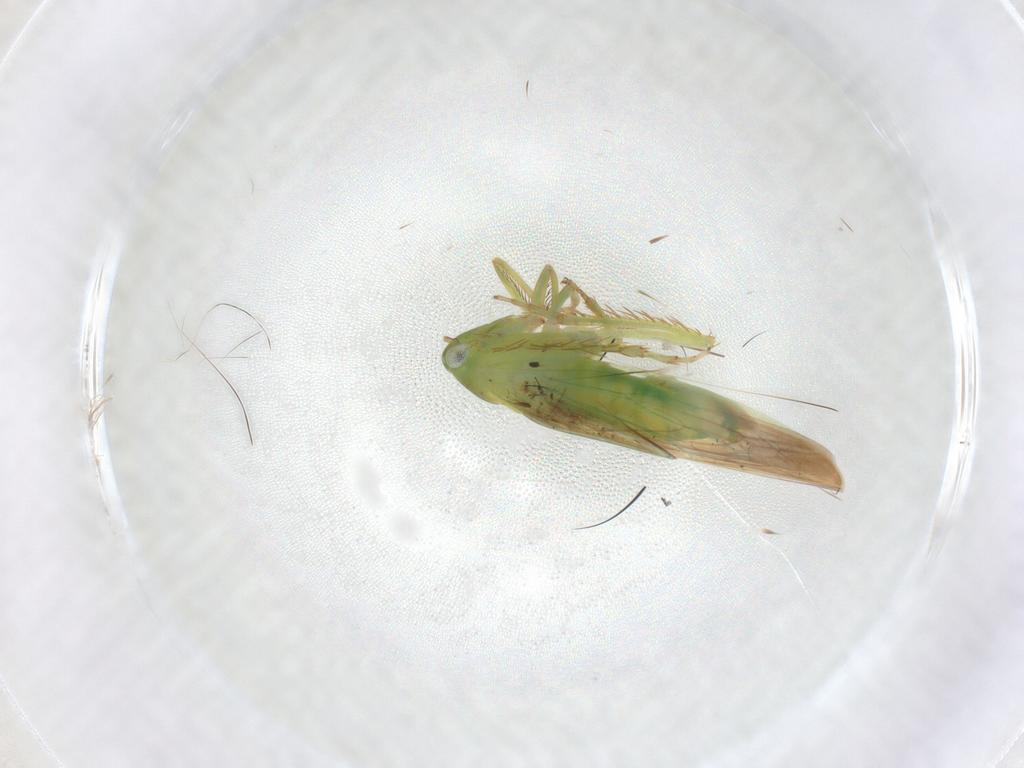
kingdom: Animalia
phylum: Arthropoda
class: Insecta
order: Hemiptera
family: Cicadellidae
